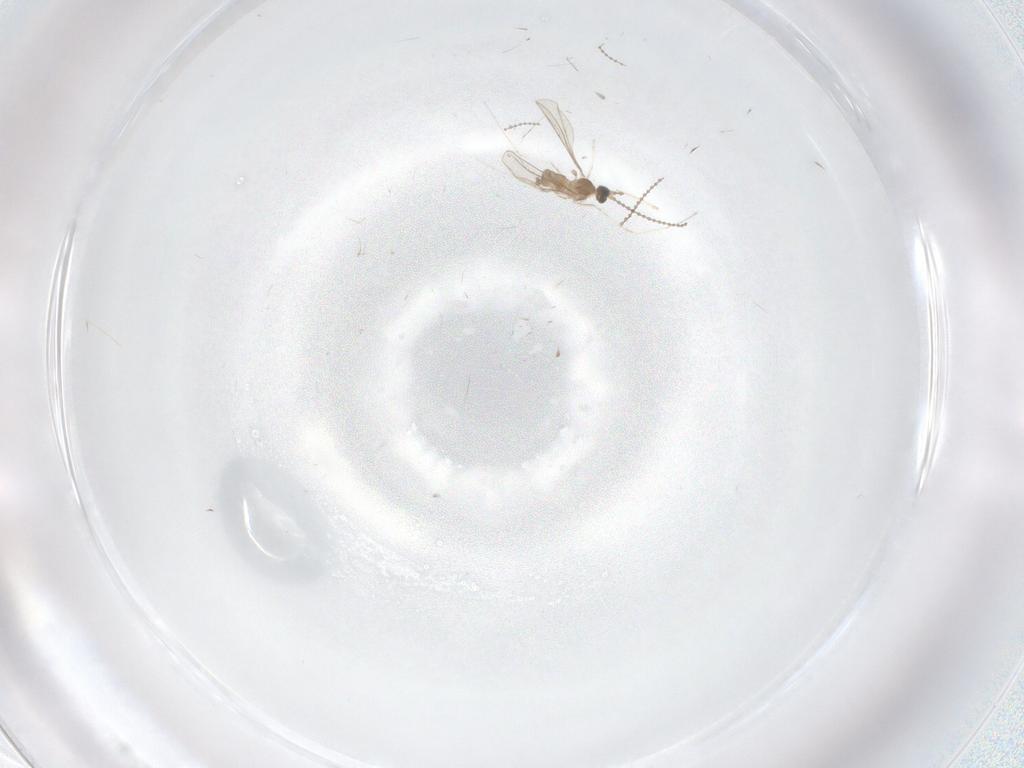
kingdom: Animalia
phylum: Arthropoda
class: Insecta
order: Diptera
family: Cecidomyiidae
